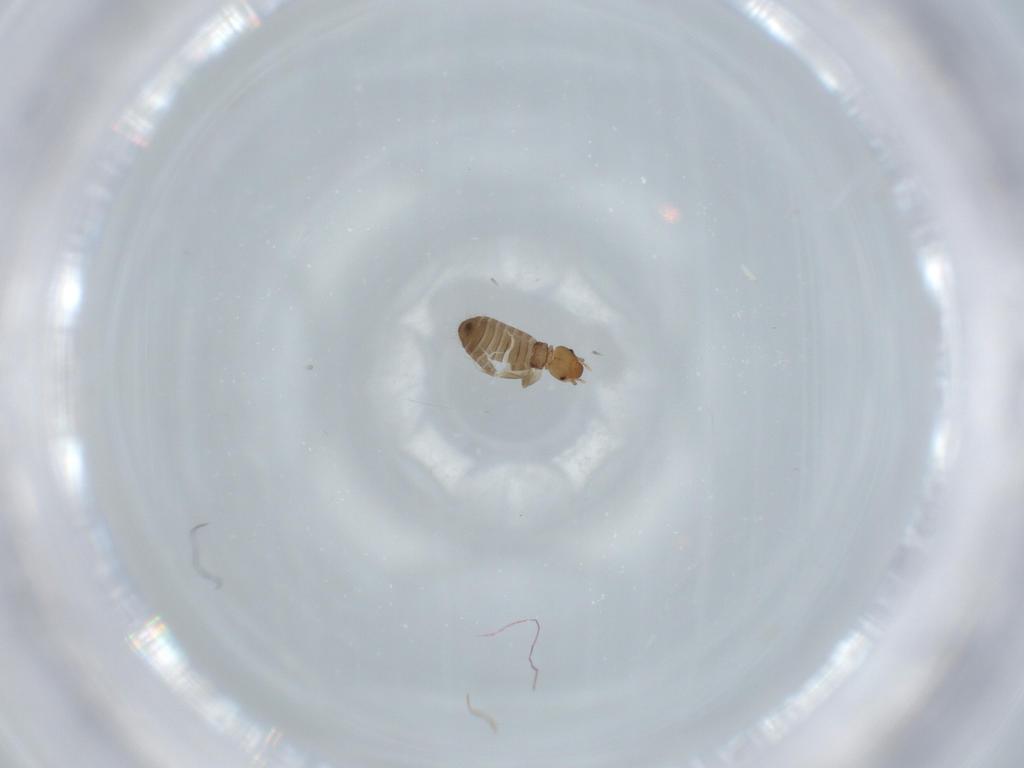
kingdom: Animalia
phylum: Arthropoda
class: Insecta
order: Psocodea
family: Liposcelididae
